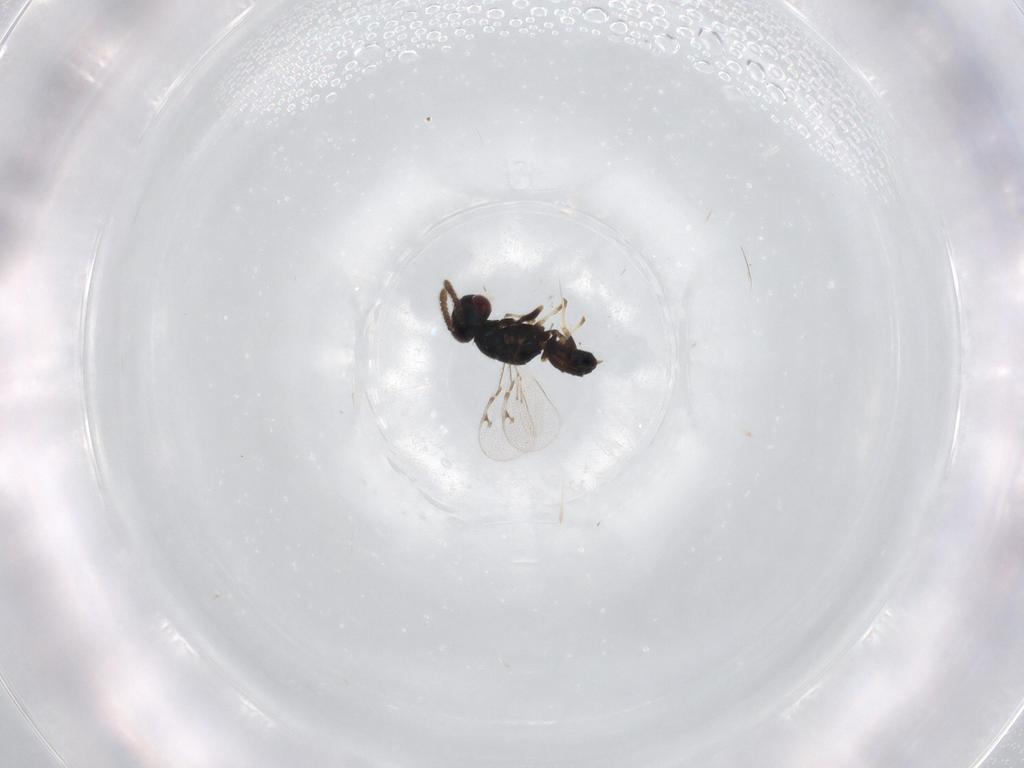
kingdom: Animalia
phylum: Arthropoda
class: Insecta
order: Hymenoptera
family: Pteromalidae
